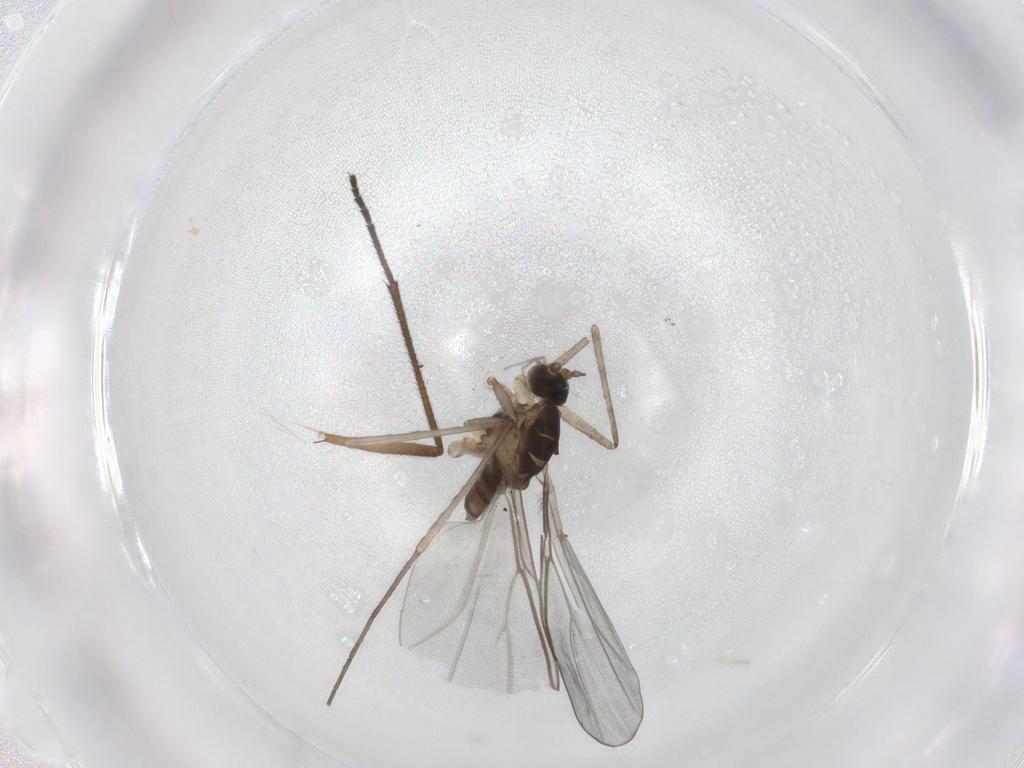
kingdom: Animalia
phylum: Arthropoda
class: Insecta
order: Diptera
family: Cecidomyiidae
